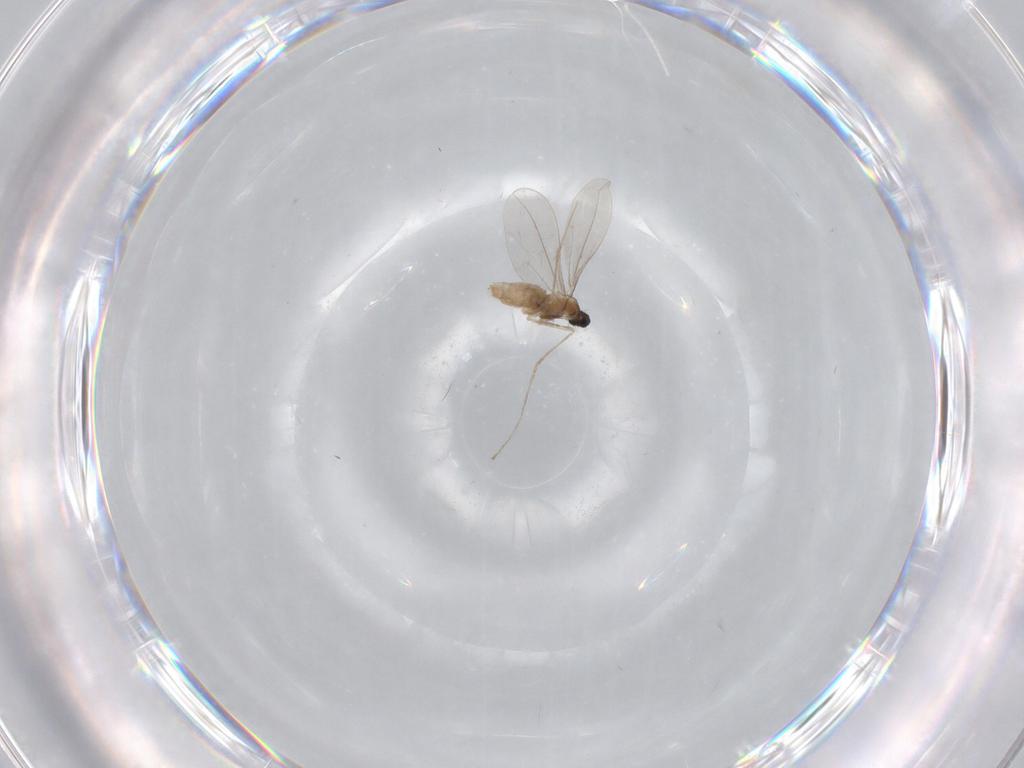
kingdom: Animalia
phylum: Arthropoda
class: Insecta
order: Diptera
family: Cecidomyiidae
